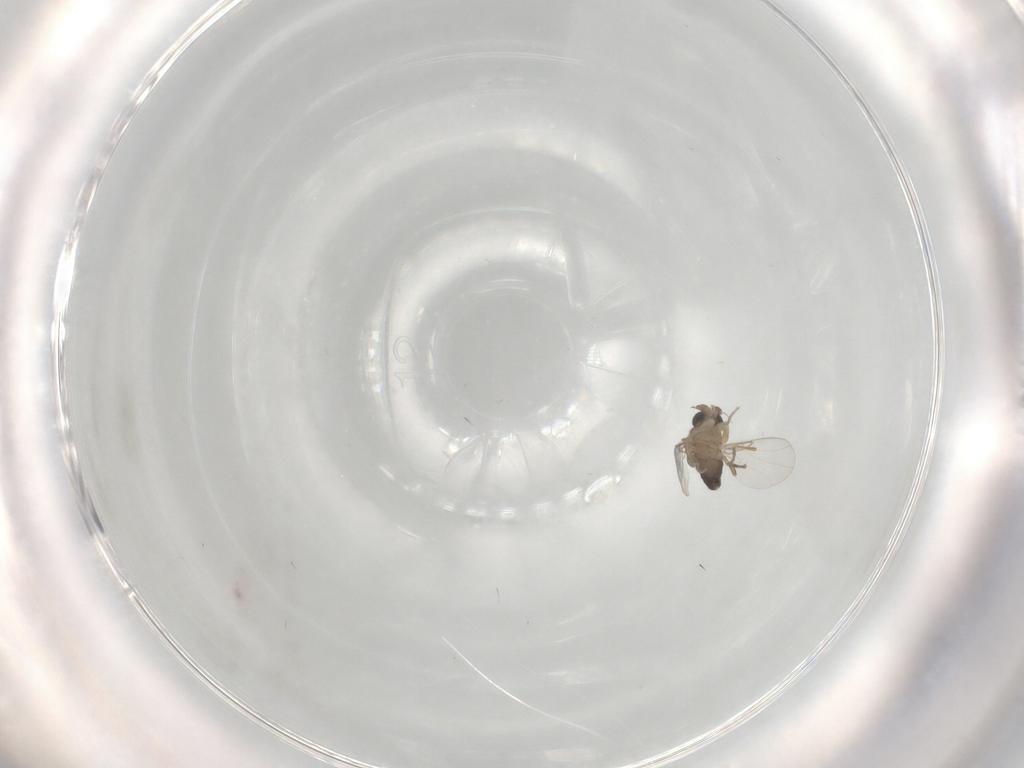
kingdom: Animalia
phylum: Arthropoda
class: Insecta
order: Diptera
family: Phoridae
